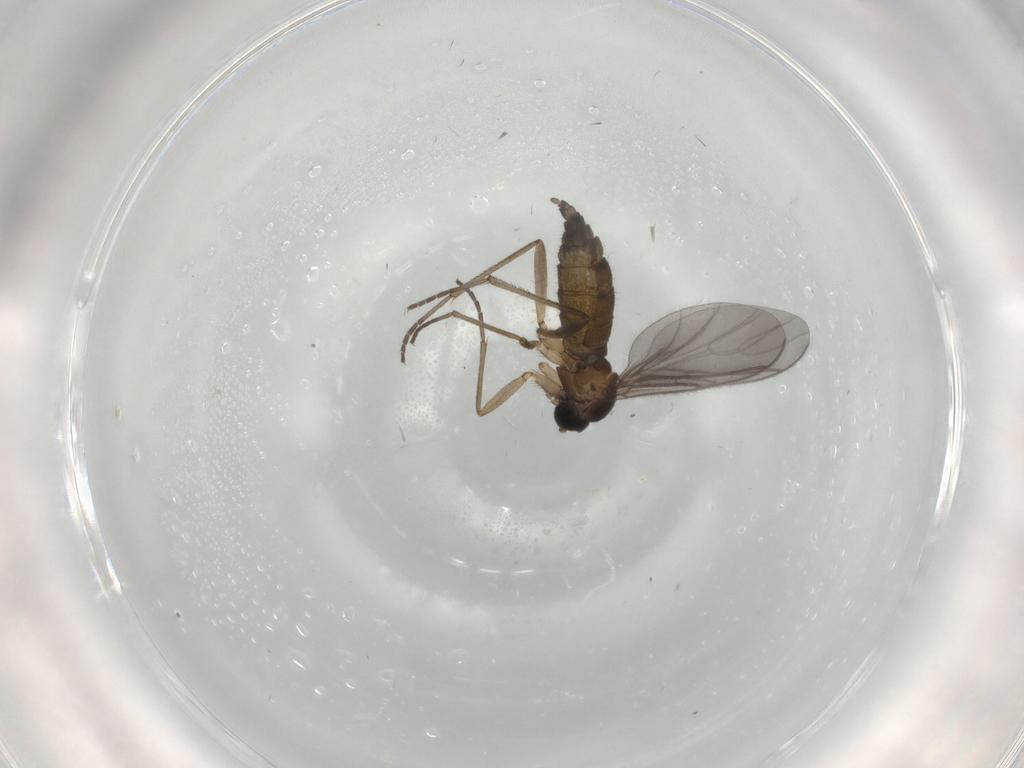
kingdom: Animalia
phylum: Arthropoda
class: Insecta
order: Diptera
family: Sciaridae
